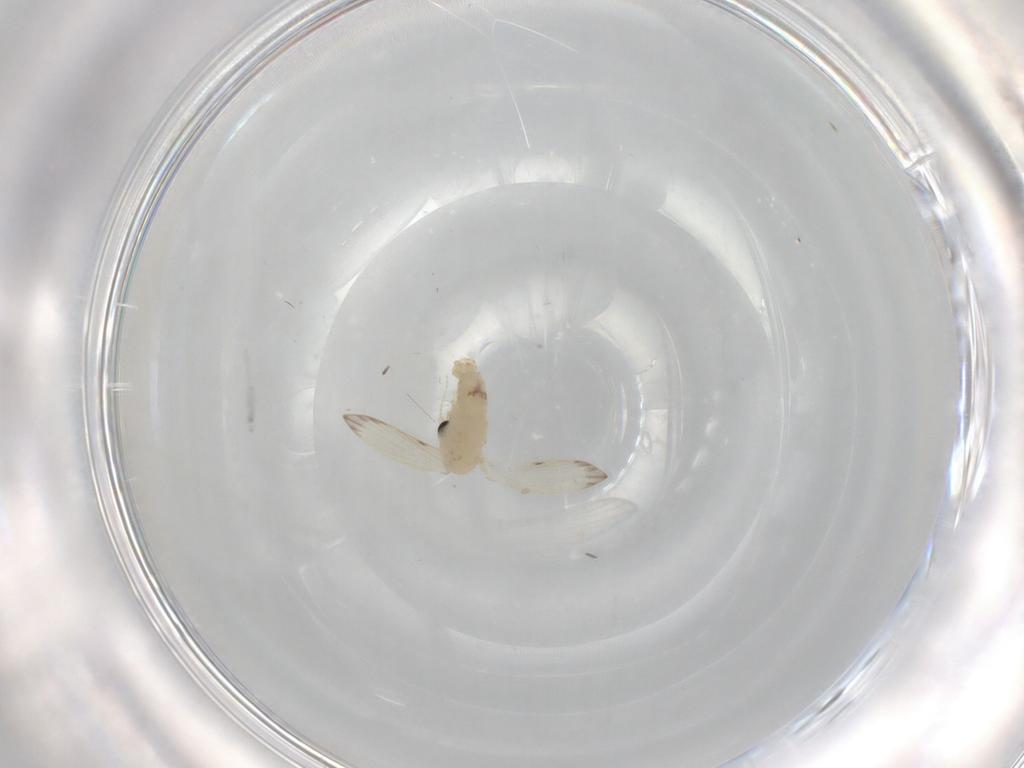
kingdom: Animalia
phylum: Arthropoda
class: Insecta
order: Diptera
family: Psychodidae
